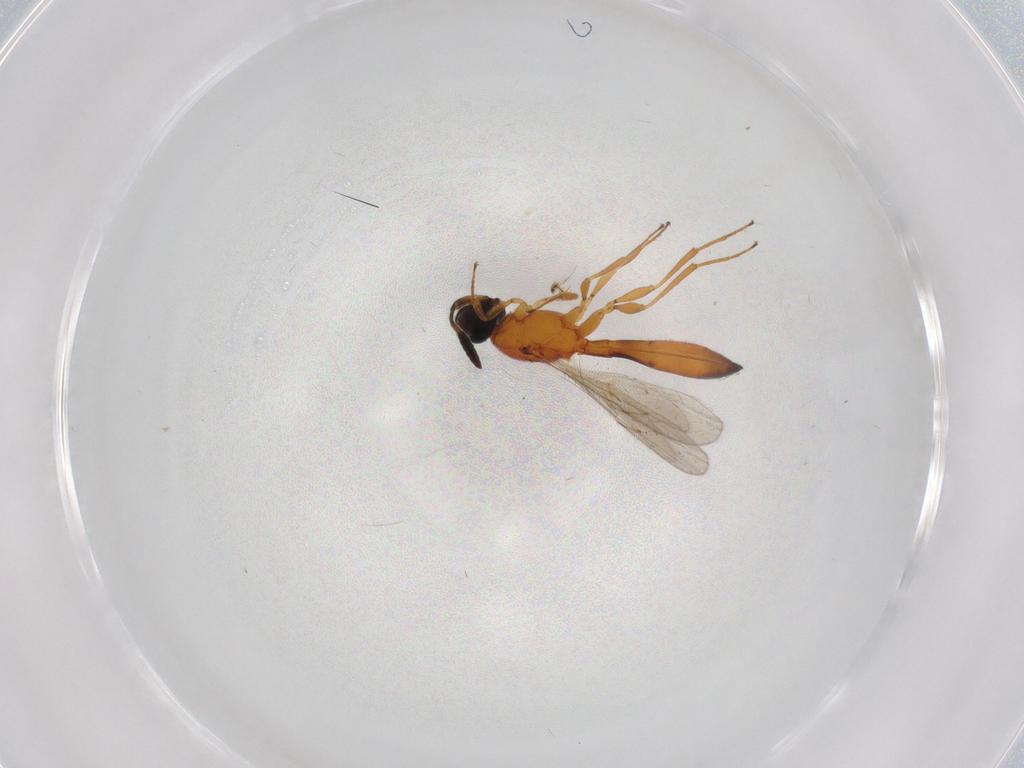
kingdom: Animalia
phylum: Arthropoda
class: Insecta
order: Hymenoptera
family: Scelionidae
